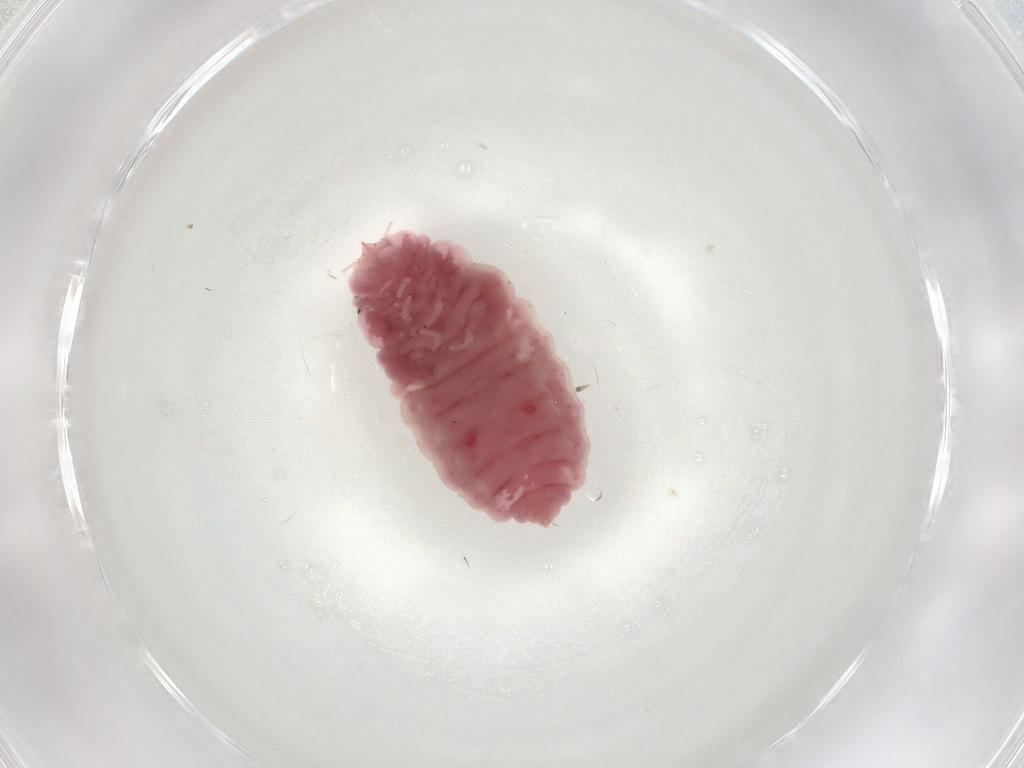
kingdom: Animalia
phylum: Arthropoda
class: Insecta
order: Neuroptera
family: Coniopterygidae
